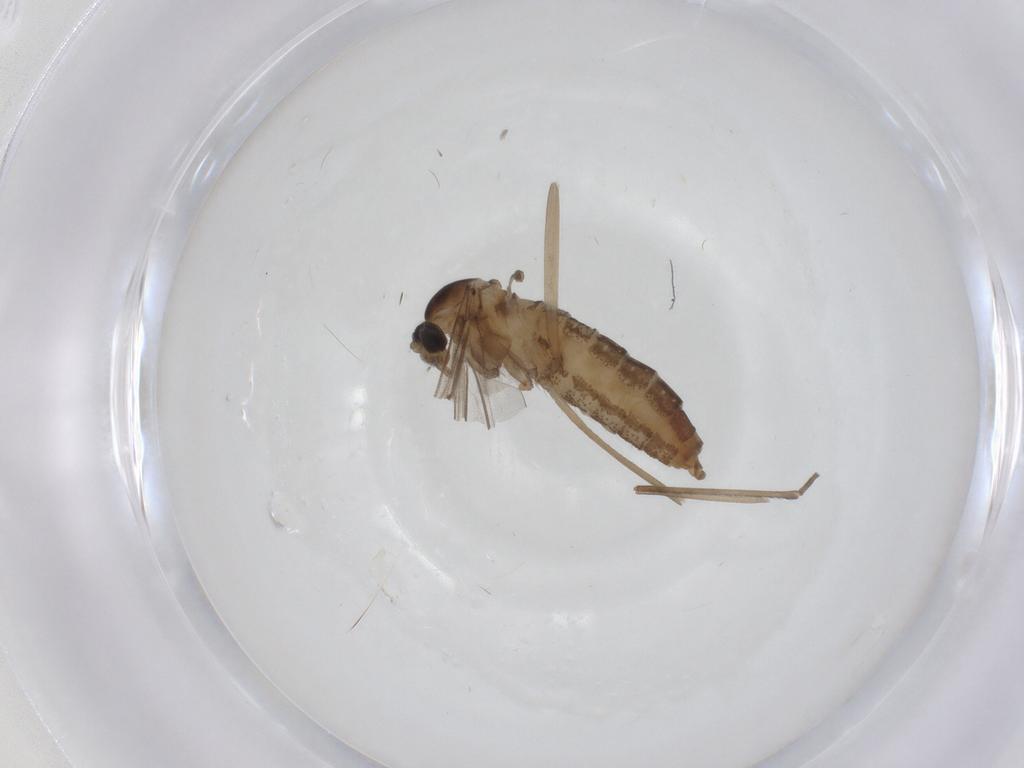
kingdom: Animalia
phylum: Arthropoda
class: Insecta
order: Diptera
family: Cecidomyiidae
